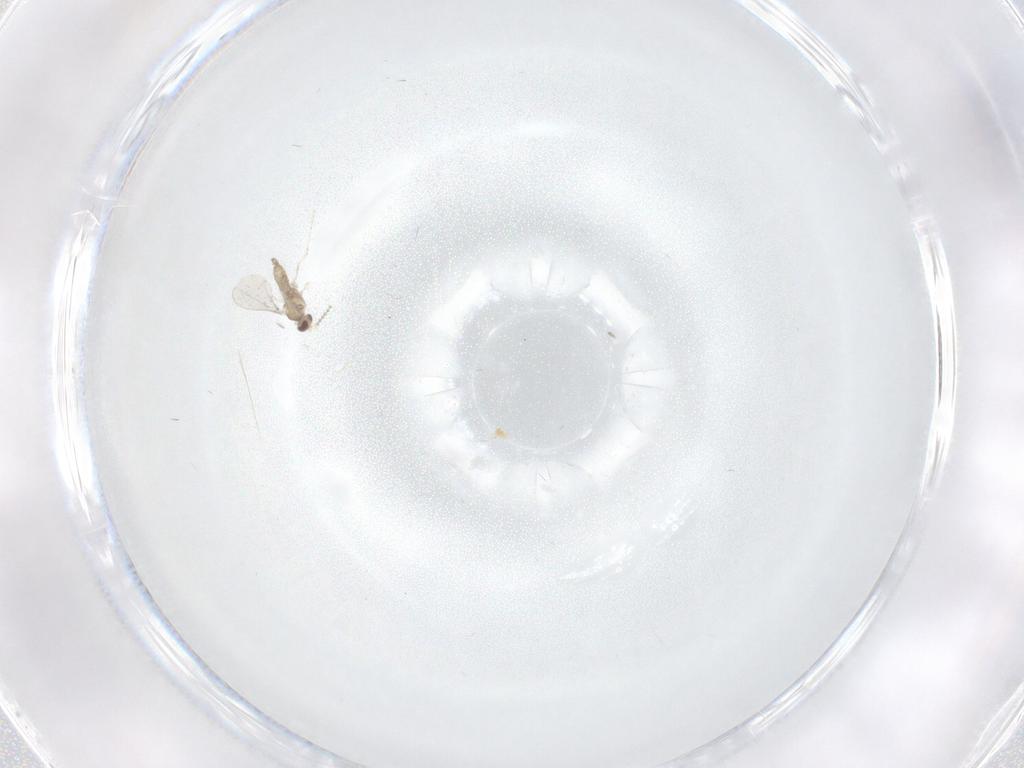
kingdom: Animalia
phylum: Arthropoda
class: Insecta
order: Diptera
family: Cecidomyiidae
